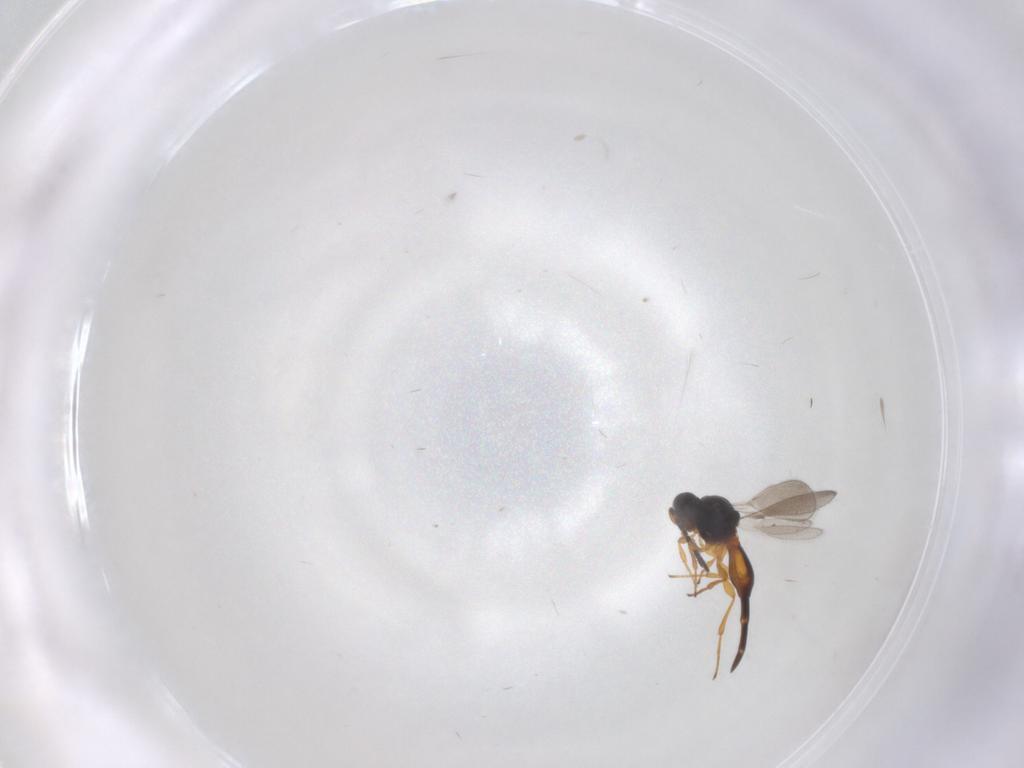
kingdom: Animalia
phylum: Arthropoda
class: Insecta
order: Hymenoptera
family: Platygastridae
